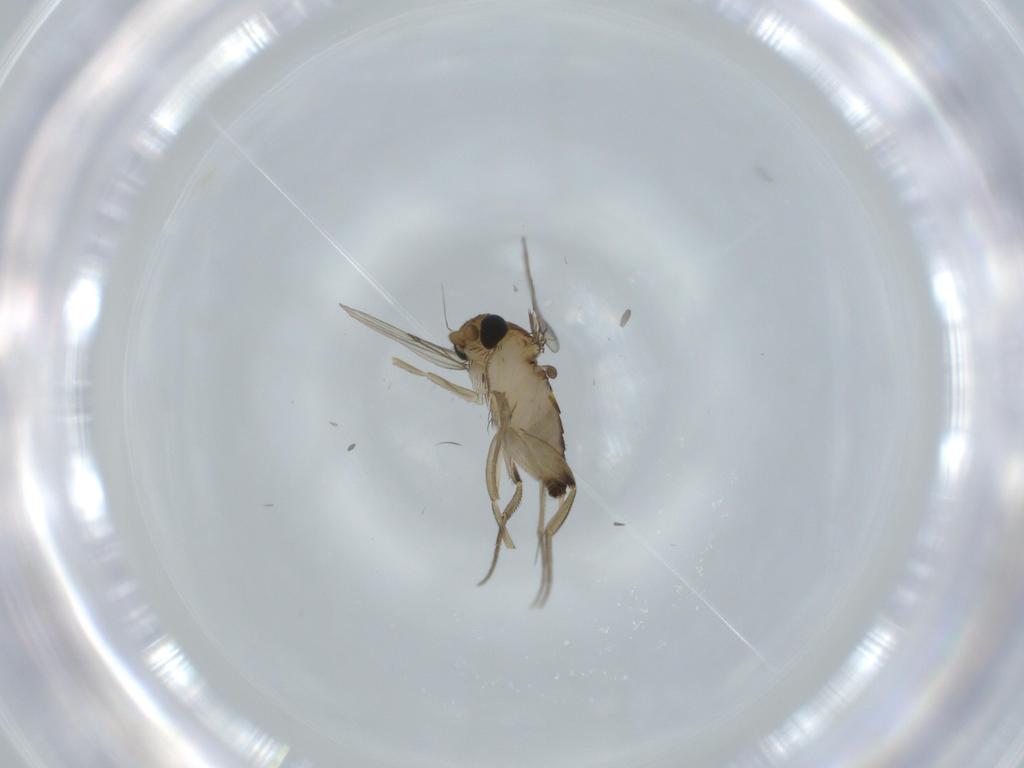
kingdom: Animalia
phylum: Arthropoda
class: Insecta
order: Diptera
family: Phoridae
